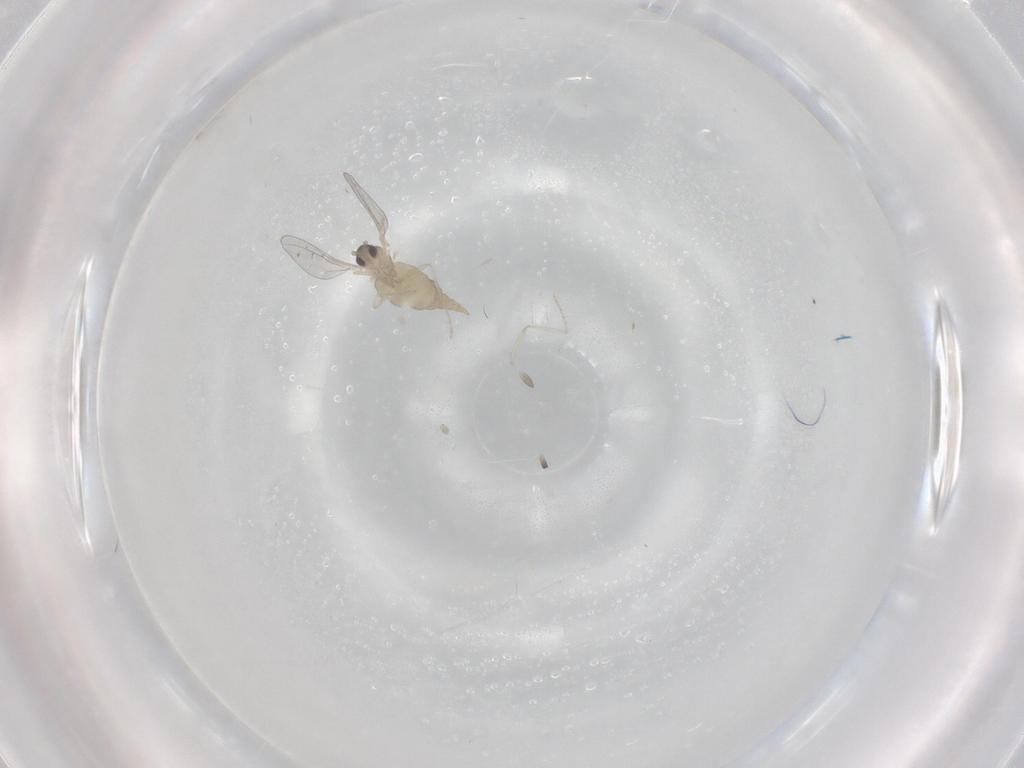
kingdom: Animalia
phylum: Arthropoda
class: Insecta
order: Diptera
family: Cecidomyiidae
